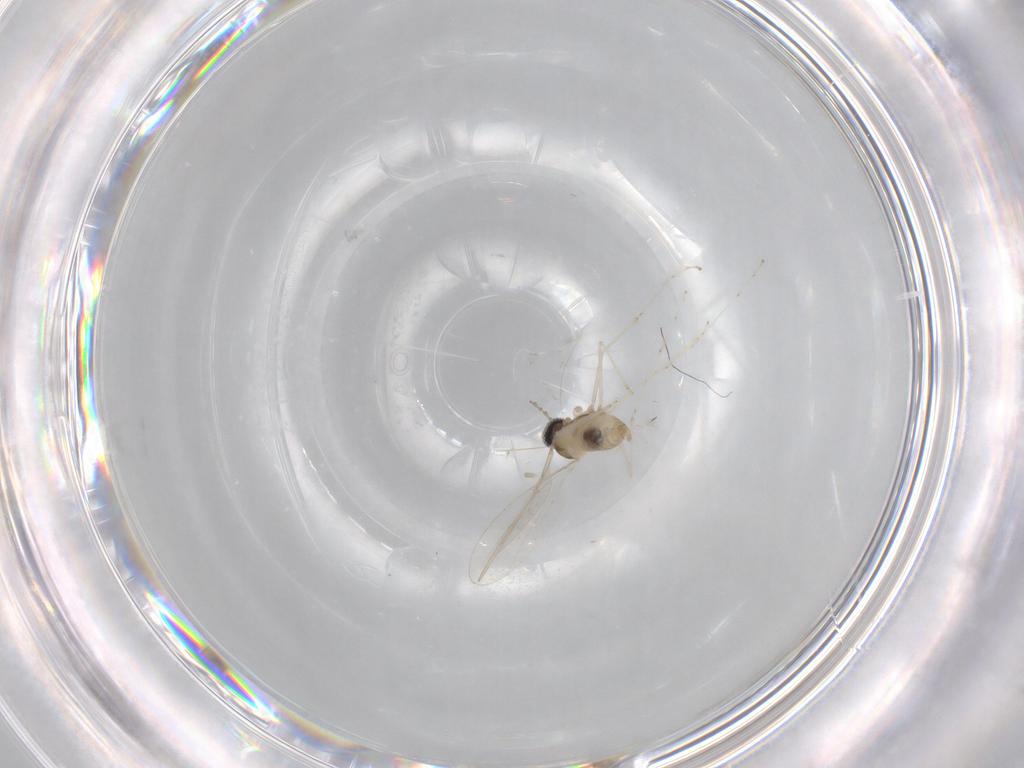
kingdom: Animalia
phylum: Arthropoda
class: Insecta
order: Diptera
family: Cecidomyiidae
